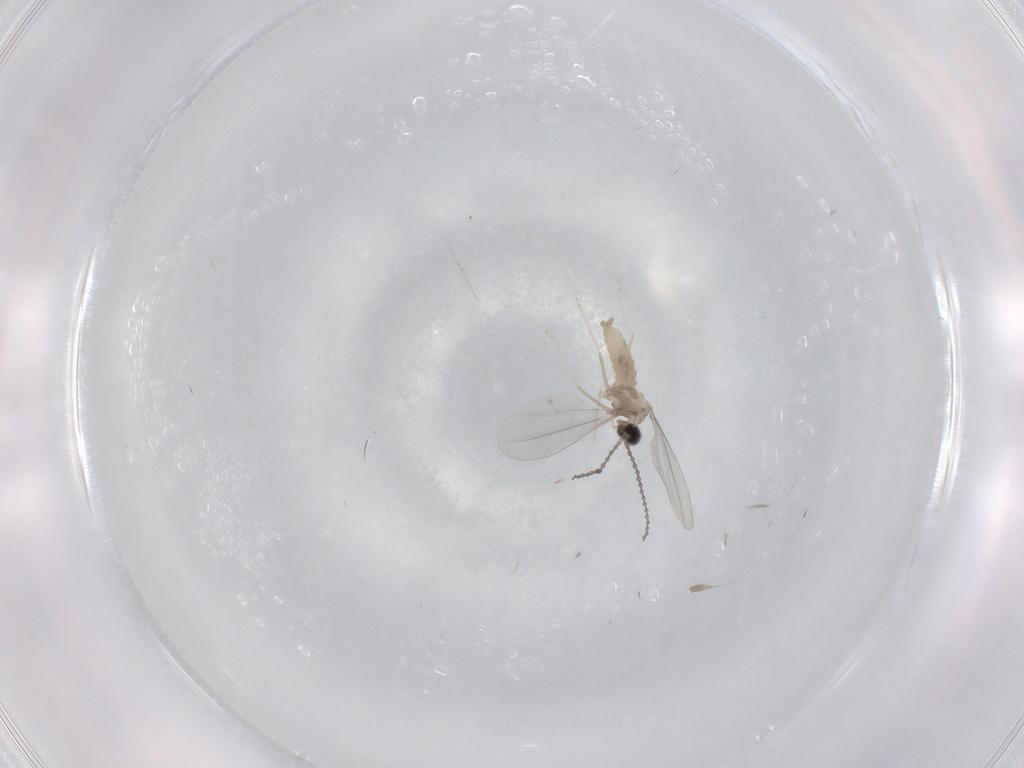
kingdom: Animalia
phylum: Arthropoda
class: Insecta
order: Diptera
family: Cecidomyiidae
